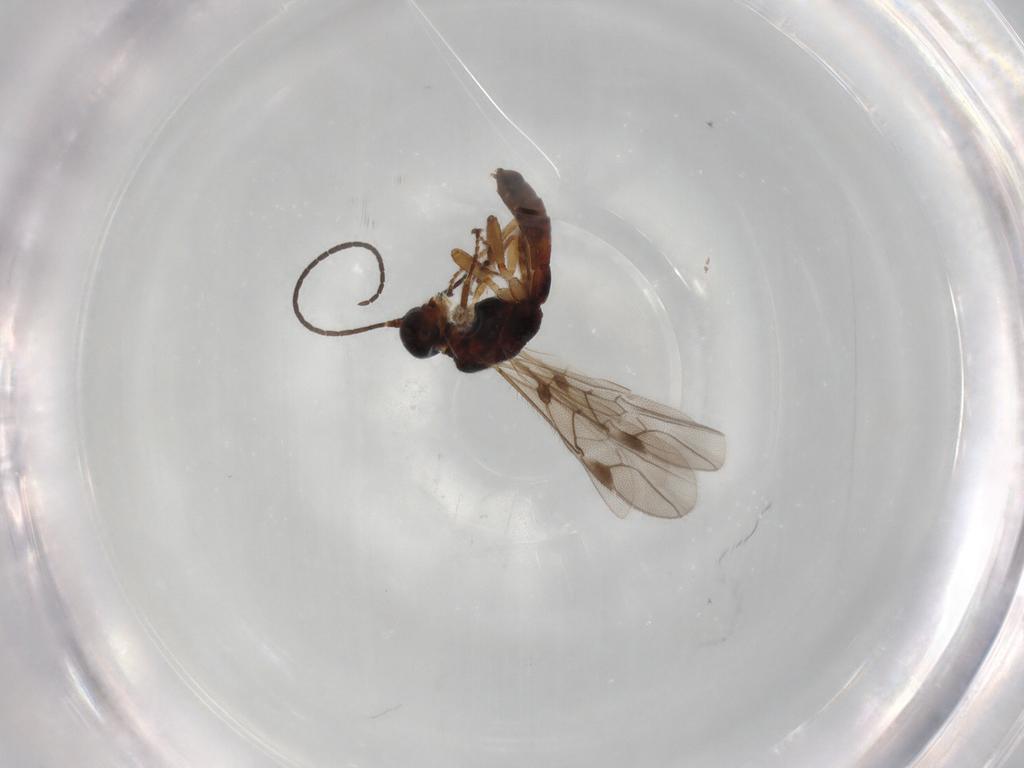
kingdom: Animalia
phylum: Arthropoda
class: Insecta
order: Hymenoptera
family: Braconidae
